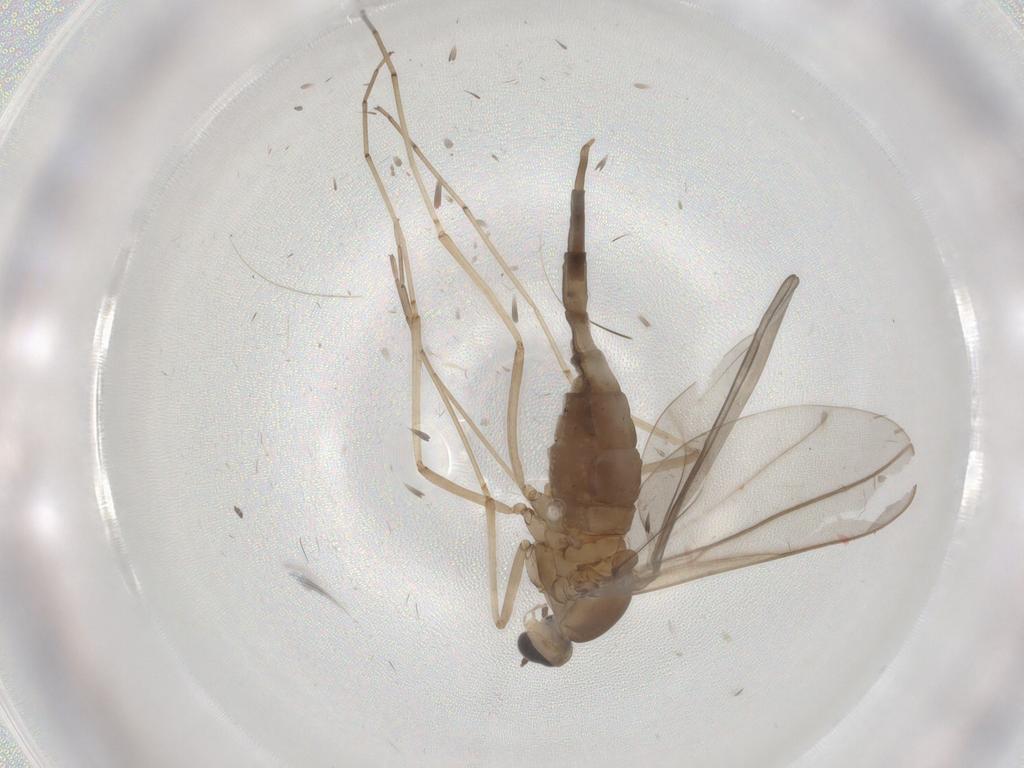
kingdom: Animalia
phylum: Arthropoda
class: Insecta
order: Diptera
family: Cecidomyiidae
